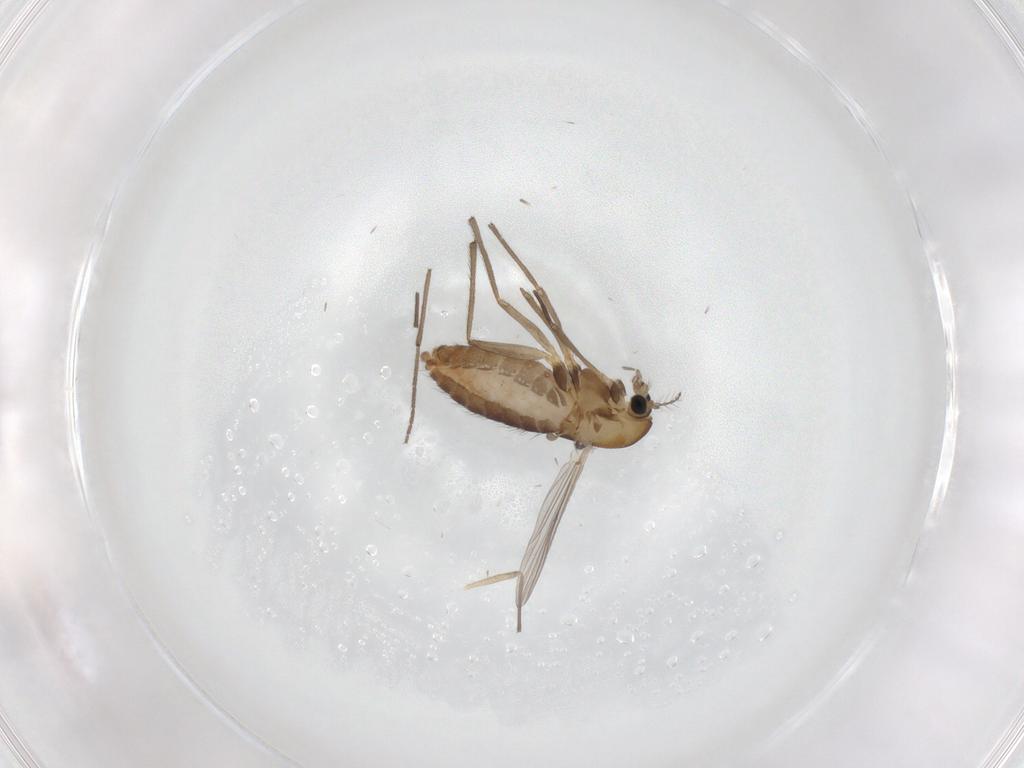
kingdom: Animalia
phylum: Arthropoda
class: Insecta
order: Diptera
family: Chironomidae
